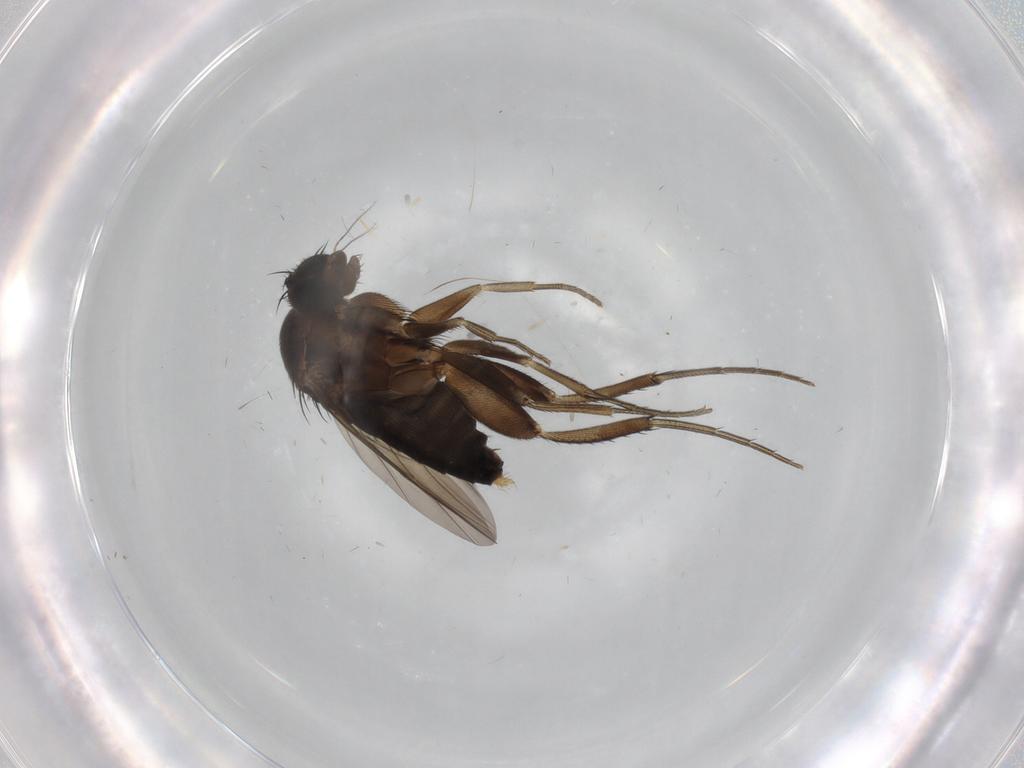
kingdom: Animalia
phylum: Arthropoda
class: Insecta
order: Diptera
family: Phoridae
